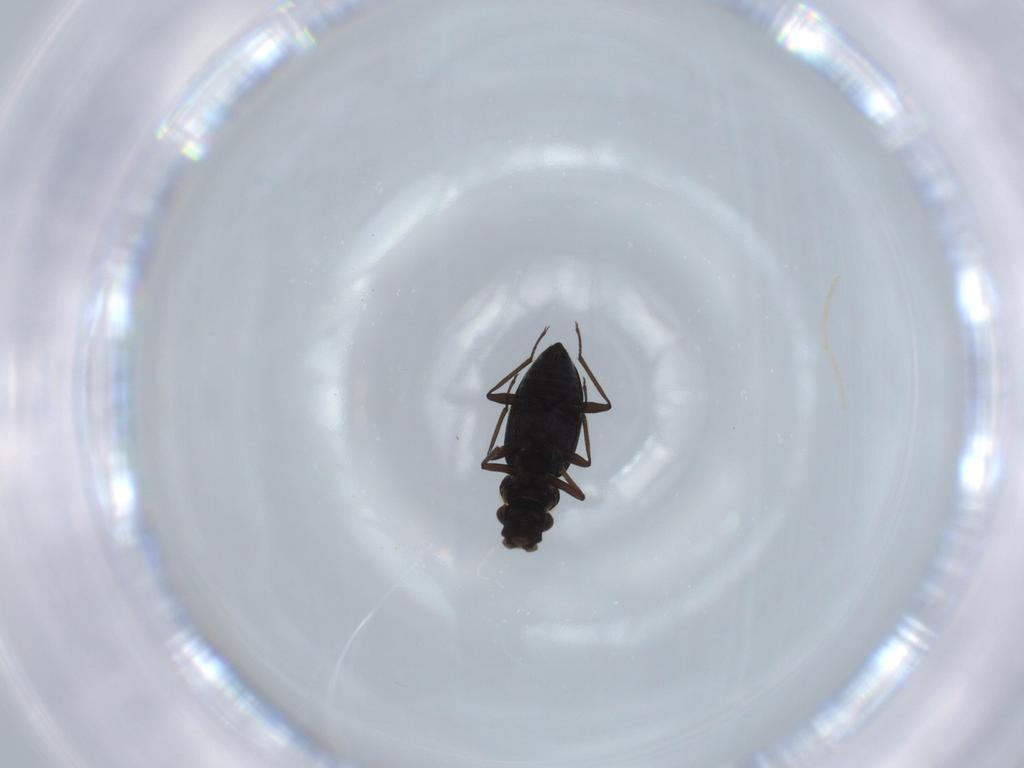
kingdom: Animalia
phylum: Arthropoda
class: Insecta
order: Coleoptera
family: Hydraenidae
